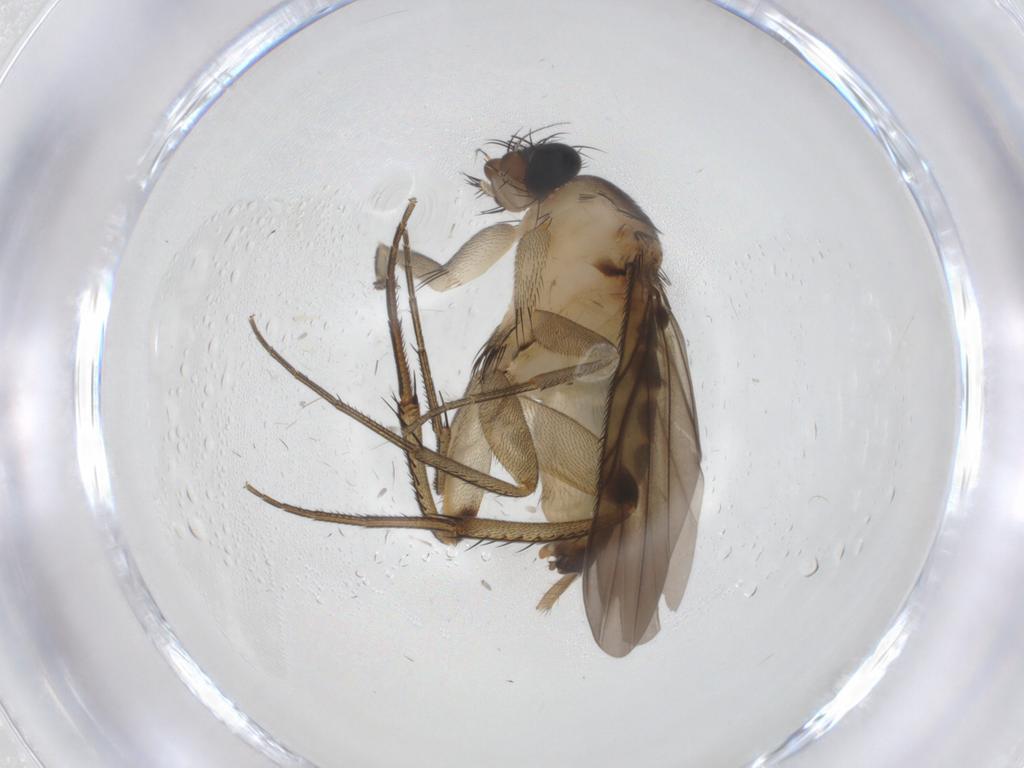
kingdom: Animalia
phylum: Arthropoda
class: Insecta
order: Diptera
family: Phoridae
